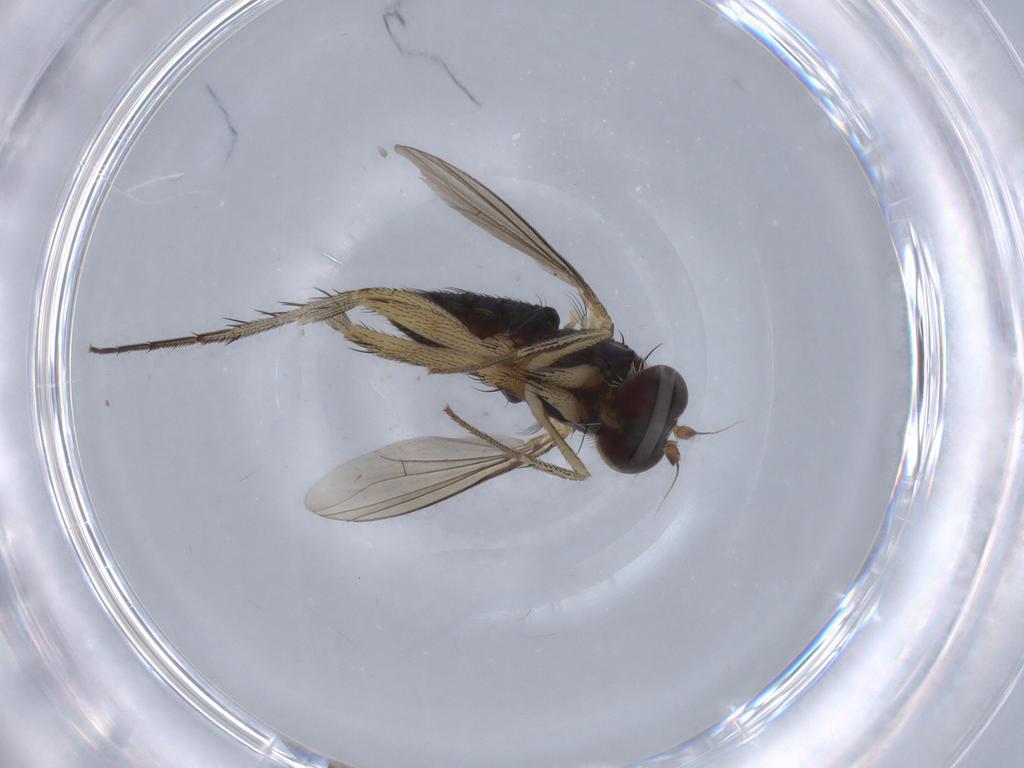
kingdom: Animalia
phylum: Arthropoda
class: Insecta
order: Diptera
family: Dolichopodidae
